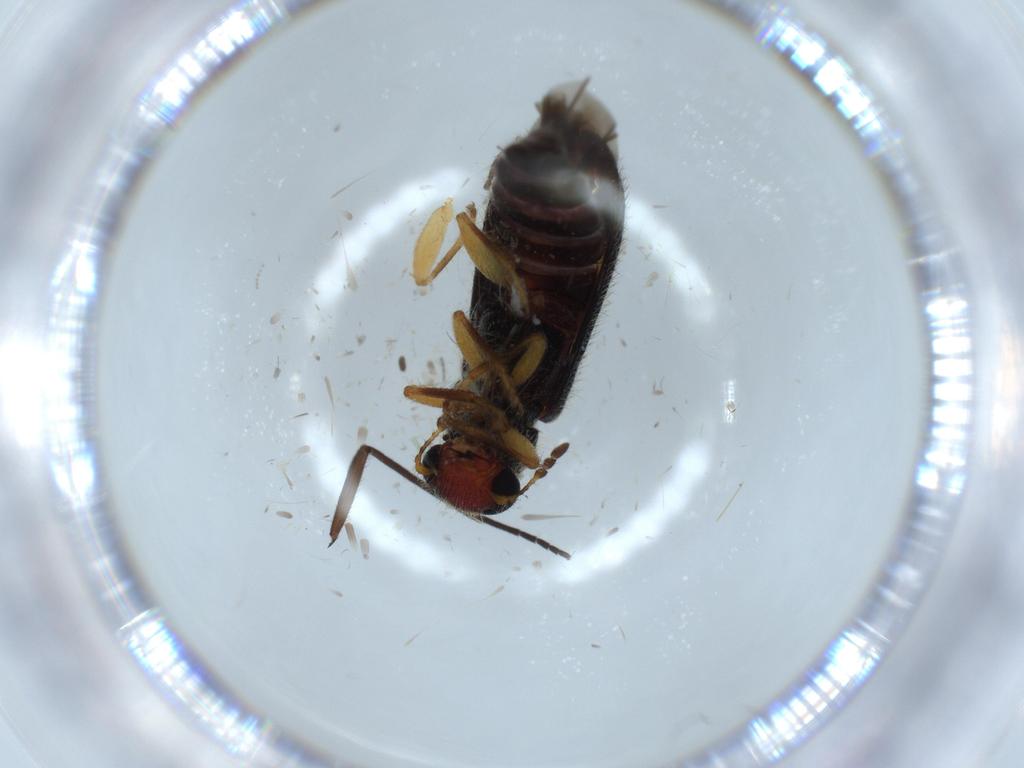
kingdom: Animalia
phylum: Arthropoda
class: Insecta
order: Coleoptera
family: Cleridae
